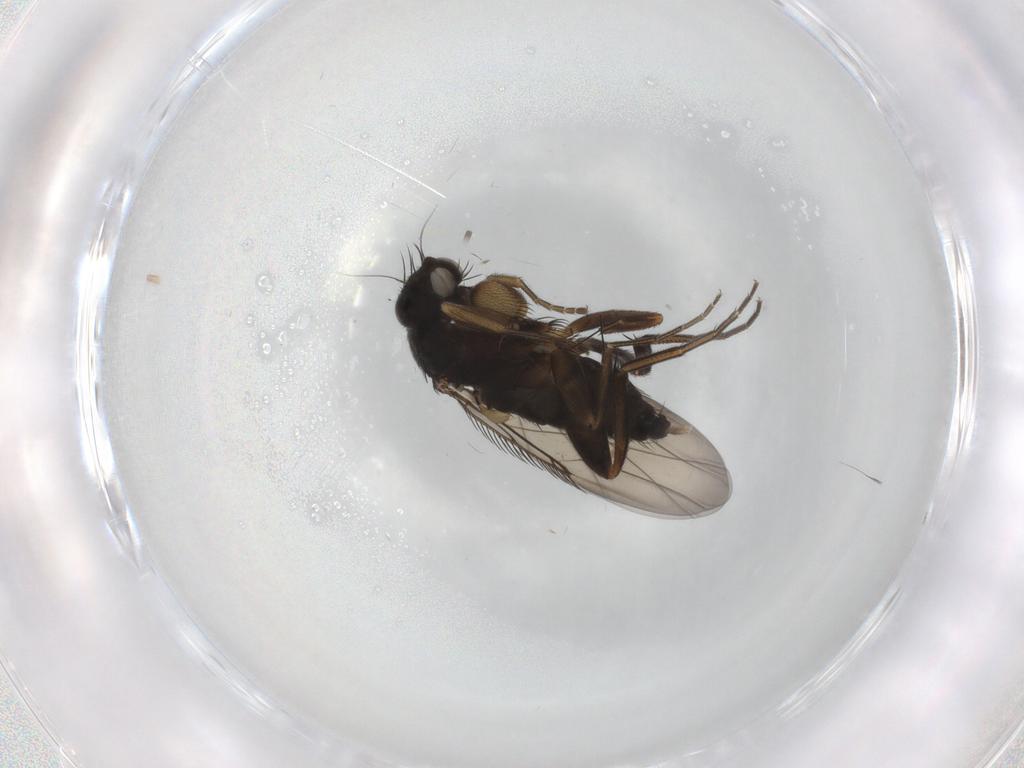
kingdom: Animalia
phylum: Arthropoda
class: Insecta
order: Diptera
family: Phoridae
